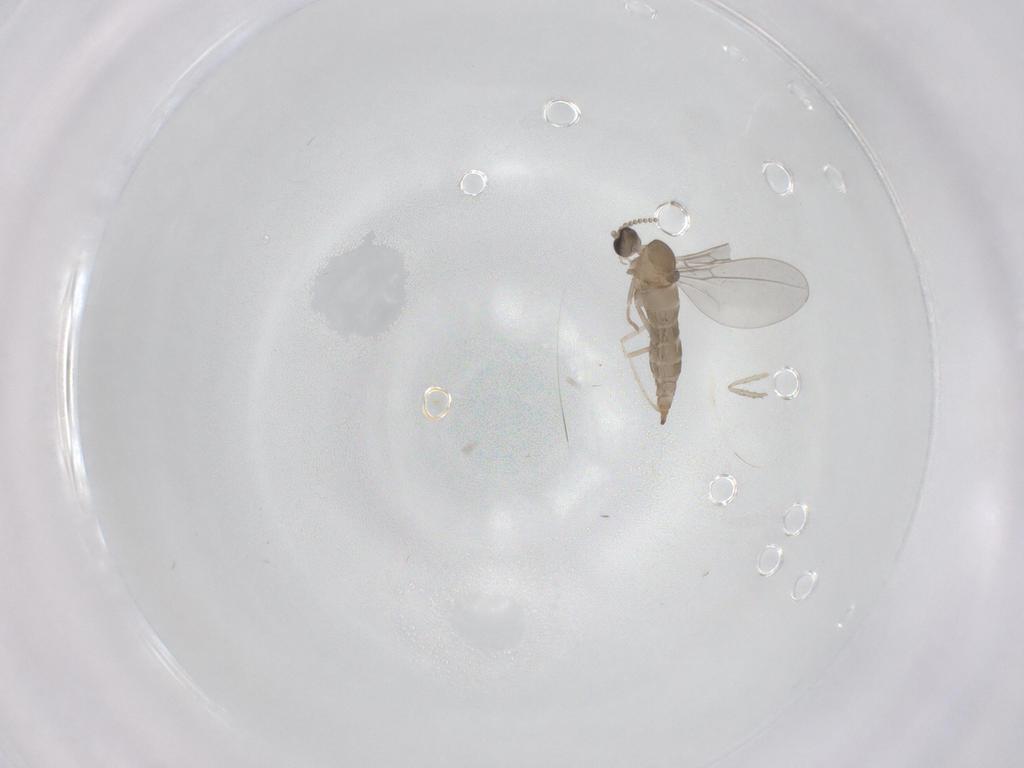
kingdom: Animalia
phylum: Arthropoda
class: Insecta
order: Diptera
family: Cecidomyiidae
